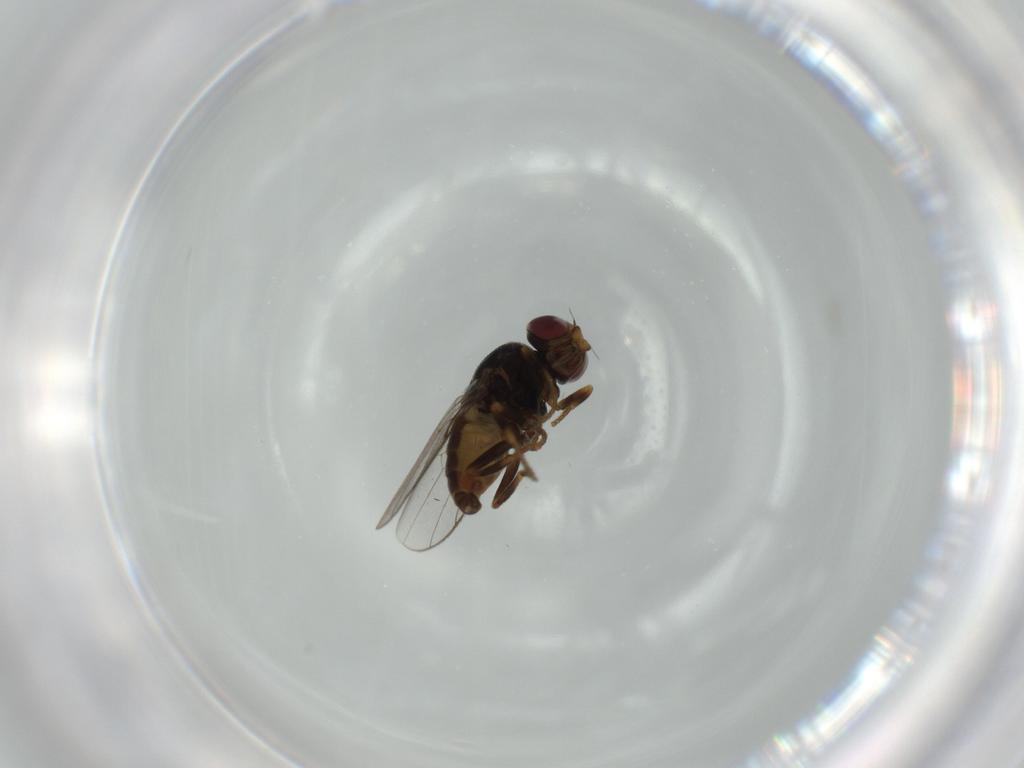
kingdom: Animalia
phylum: Arthropoda
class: Insecta
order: Diptera
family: Chloropidae
